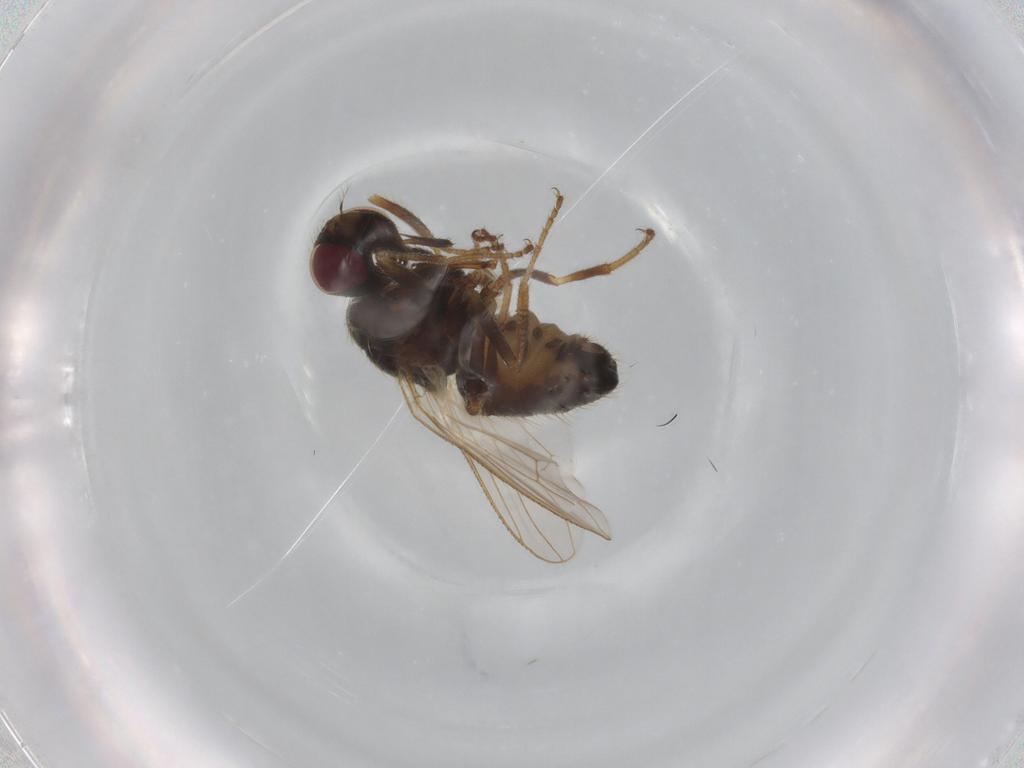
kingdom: Animalia
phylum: Arthropoda
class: Insecta
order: Diptera
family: Muscidae
